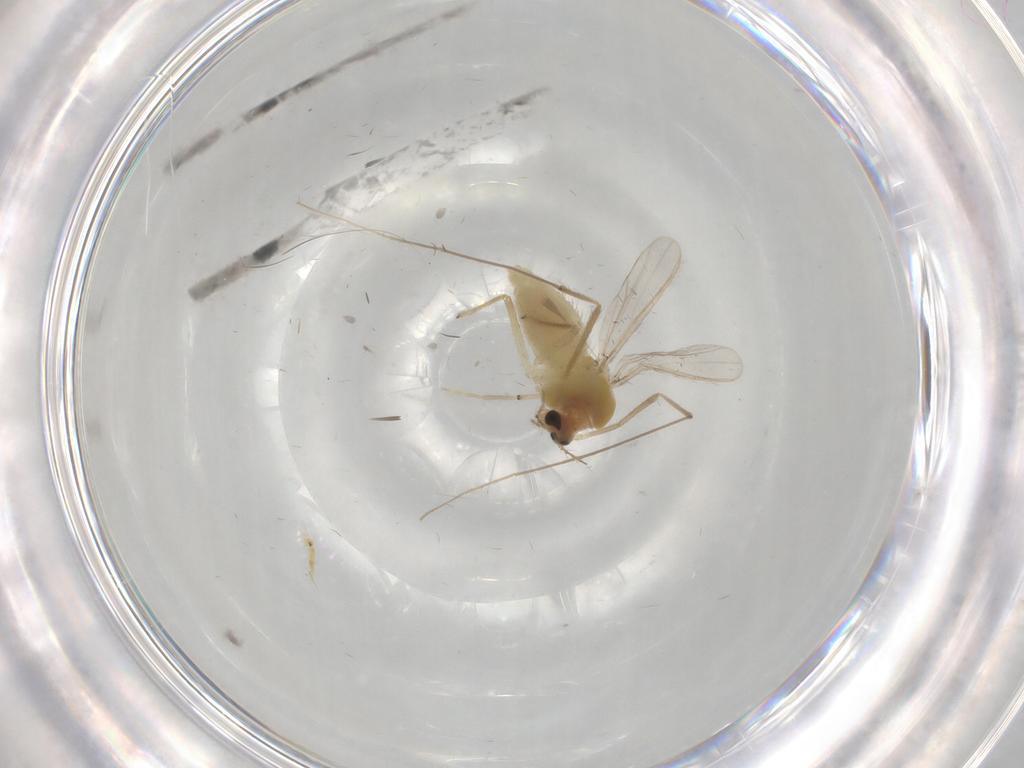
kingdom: Animalia
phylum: Arthropoda
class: Insecta
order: Diptera
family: Chironomidae
